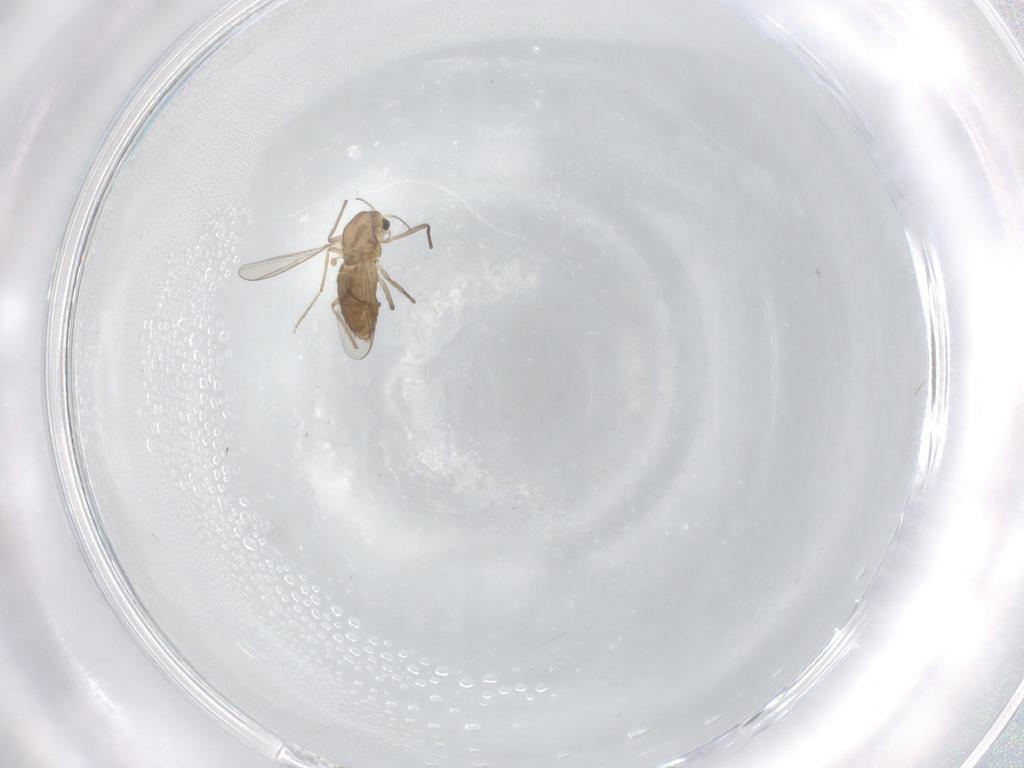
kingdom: Animalia
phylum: Arthropoda
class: Insecta
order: Diptera
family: Chironomidae
